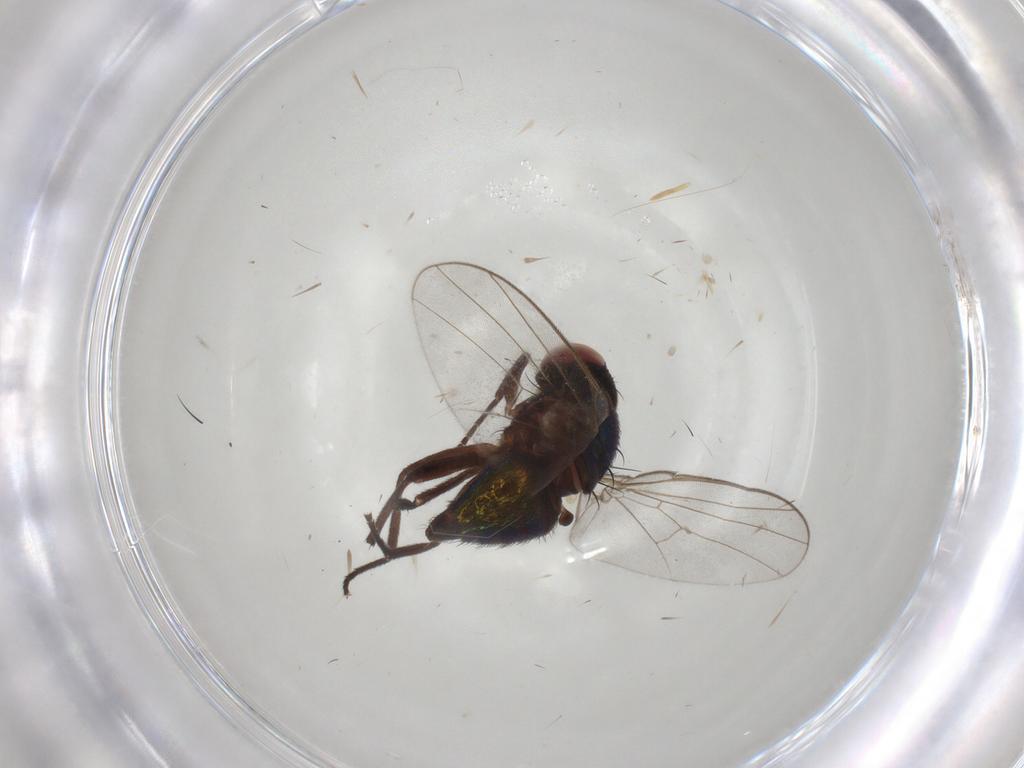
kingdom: Animalia
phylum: Arthropoda
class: Insecta
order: Diptera
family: Agromyzidae
